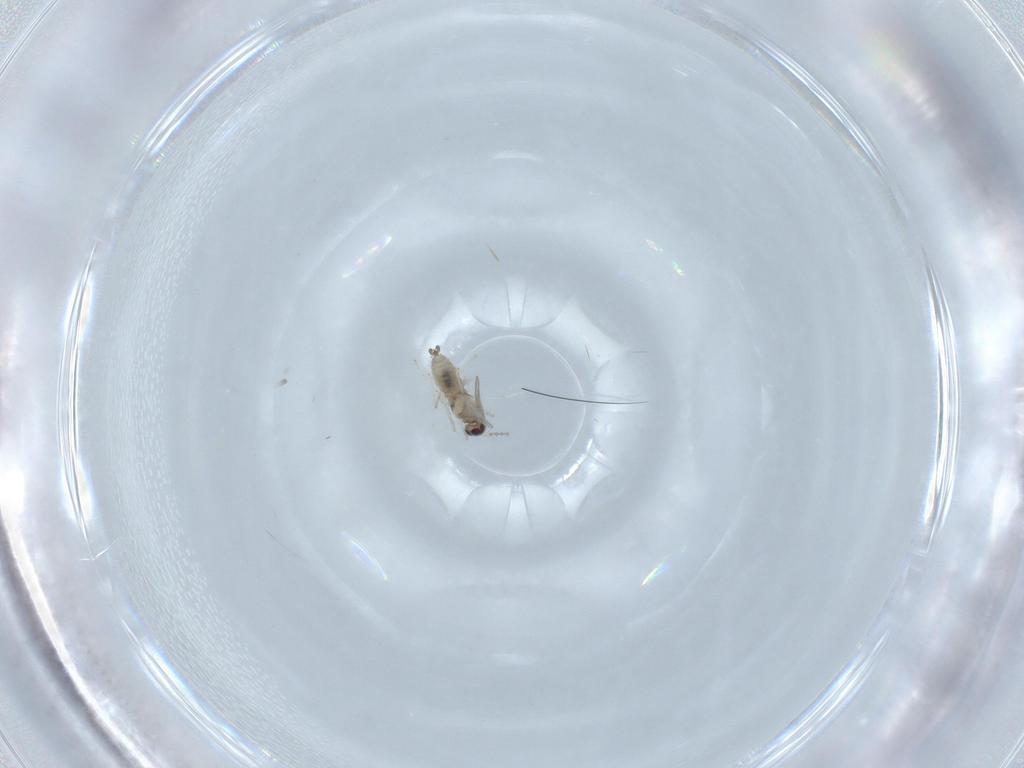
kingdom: Animalia
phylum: Arthropoda
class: Insecta
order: Diptera
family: Cecidomyiidae
